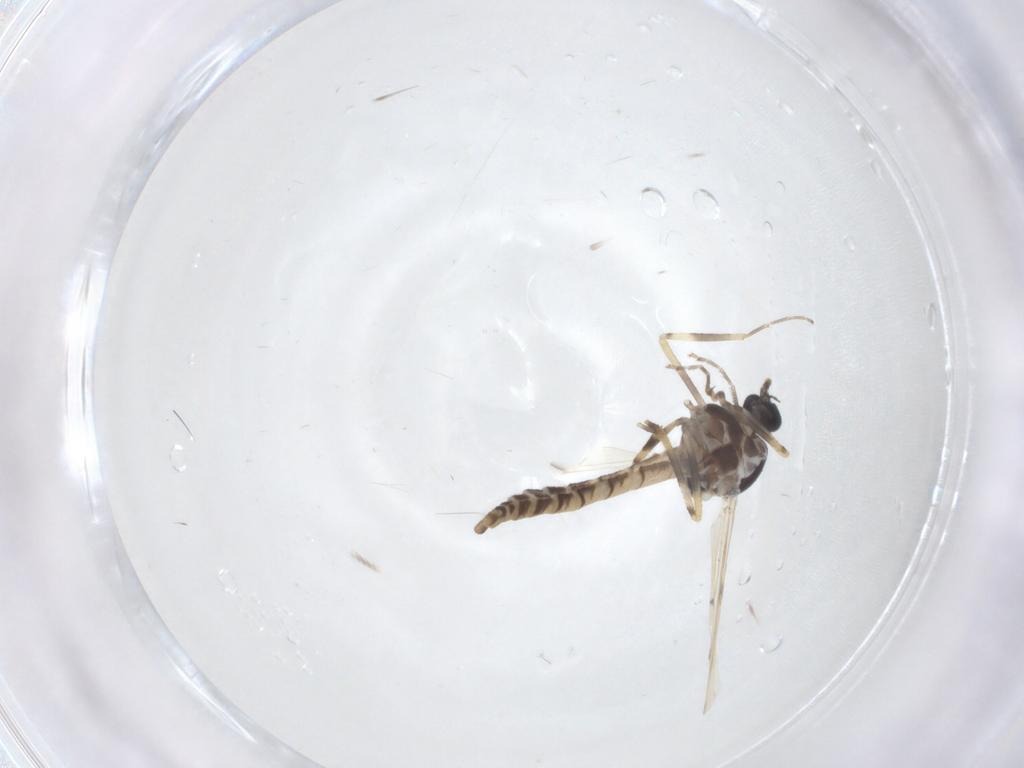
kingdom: Animalia
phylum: Arthropoda
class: Insecta
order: Diptera
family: Ceratopogonidae
